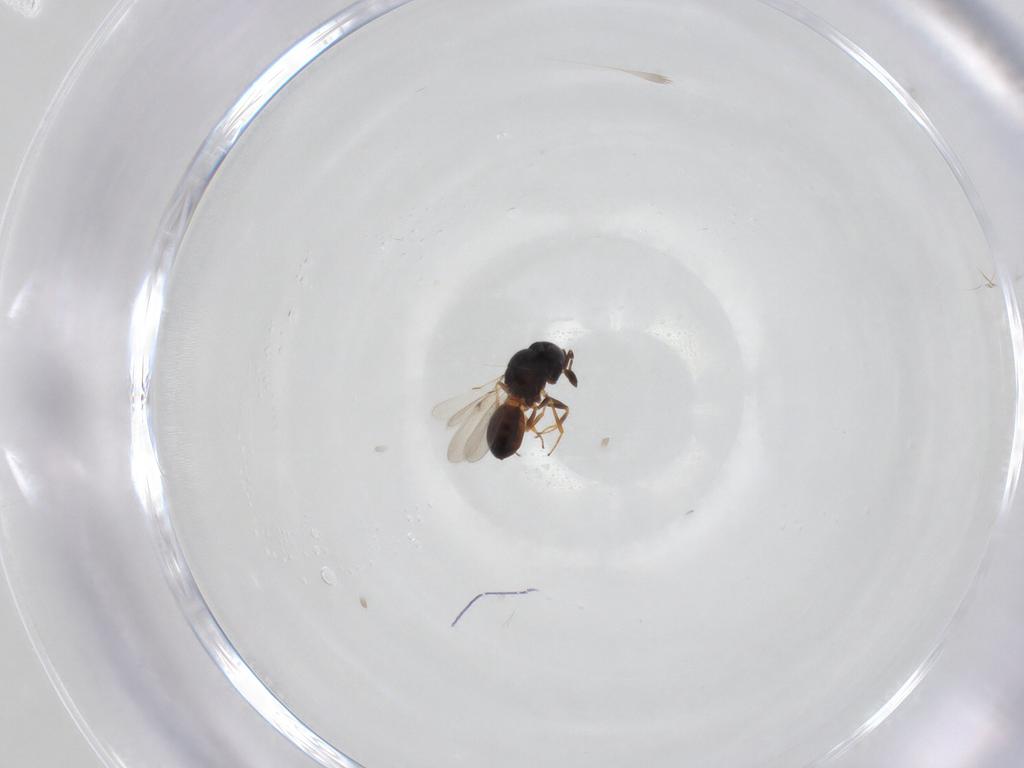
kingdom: Animalia
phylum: Arthropoda
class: Arachnida
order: Araneae
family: Pholcidae
